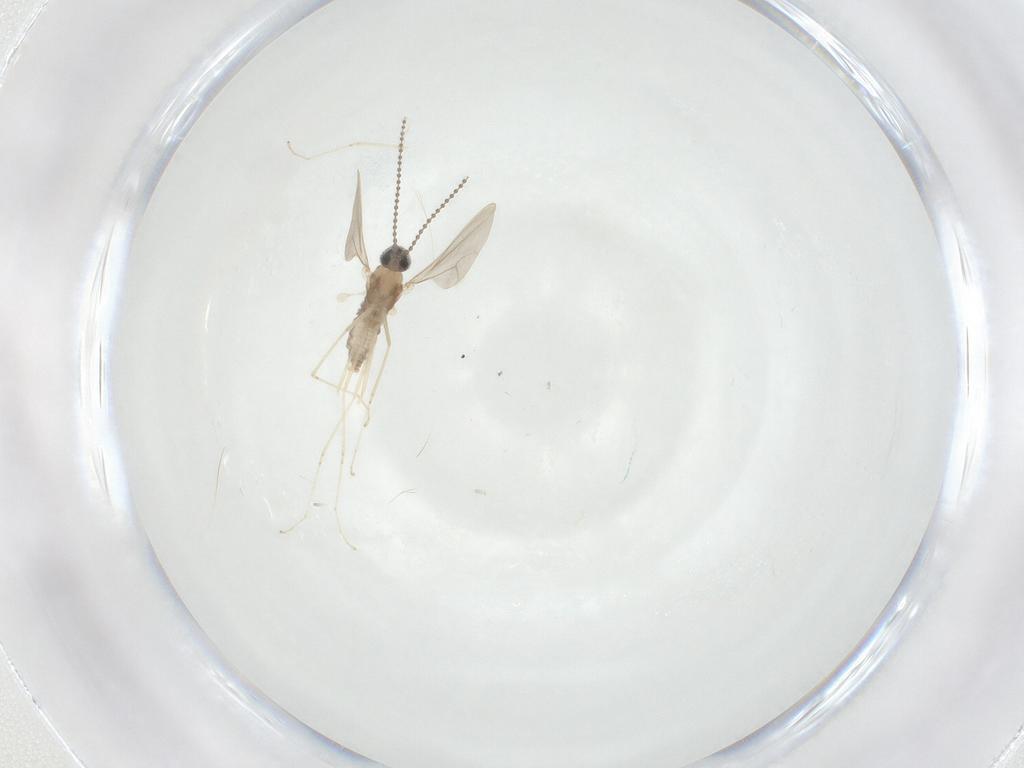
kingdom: Animalia
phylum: Arthropoda
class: Insecta
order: Diptera
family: Cecidomyiidae
